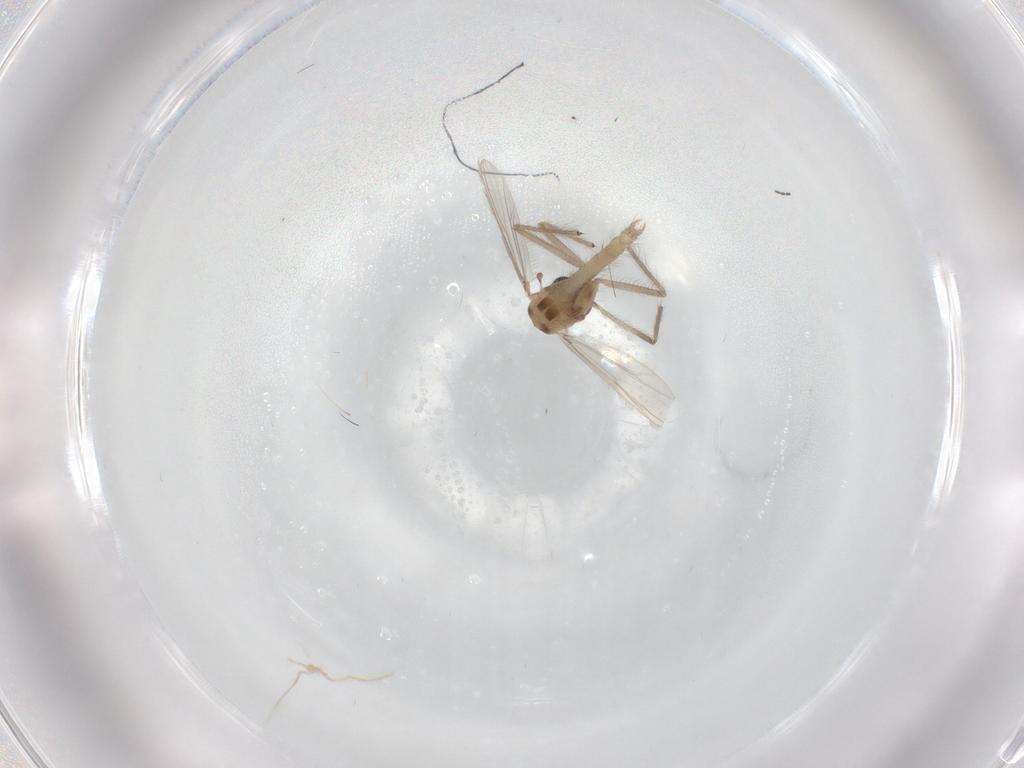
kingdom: Animalia
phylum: Arthropoda
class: Insecta
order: Diptera
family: Chironomidae
